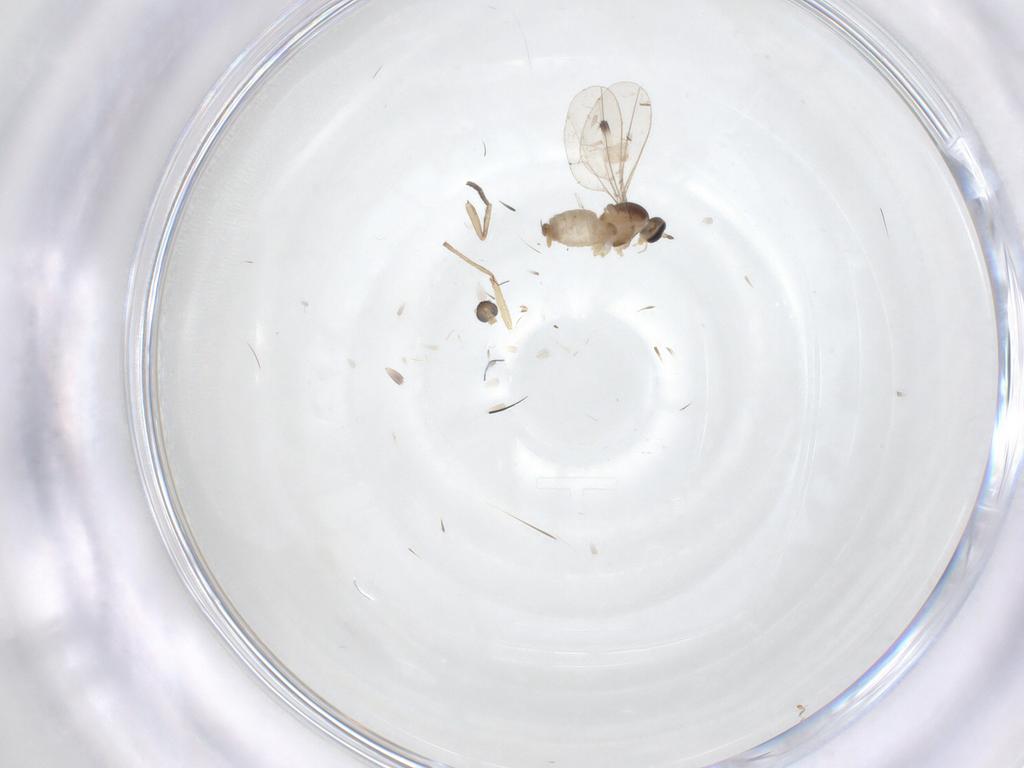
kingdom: Animalia
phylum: Arthropoda
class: Insecta
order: Diptera
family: Cecidomyiidae
